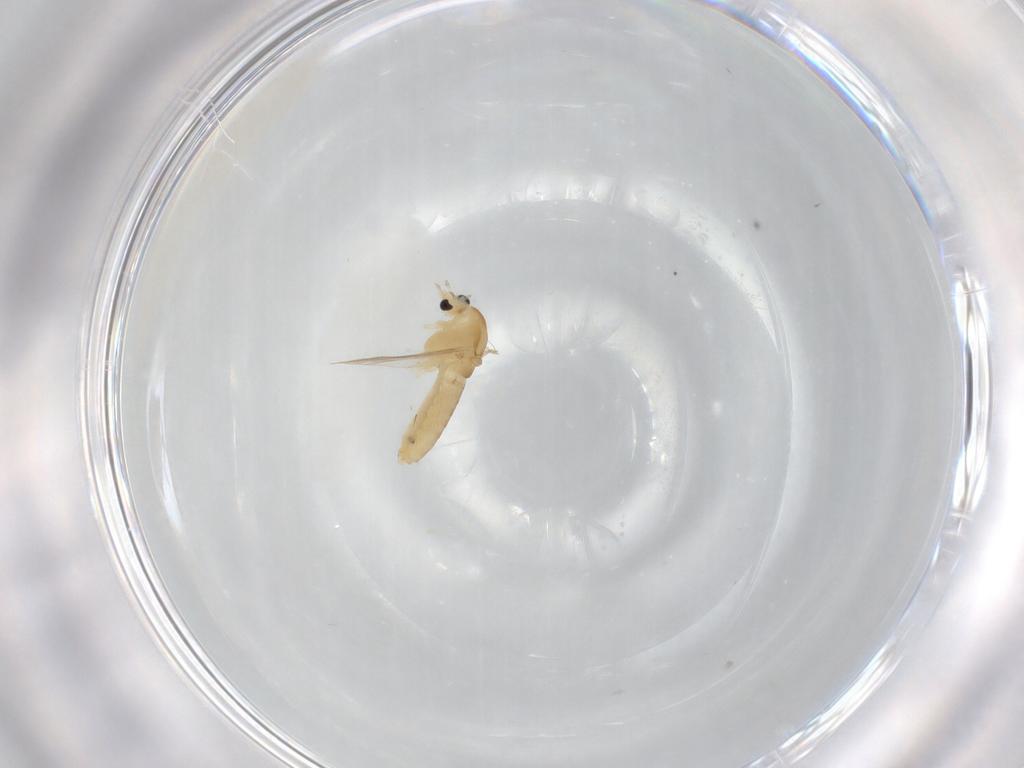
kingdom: Animalia
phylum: Arthropoda
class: Insecta
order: Diptera
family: Chironomidae
